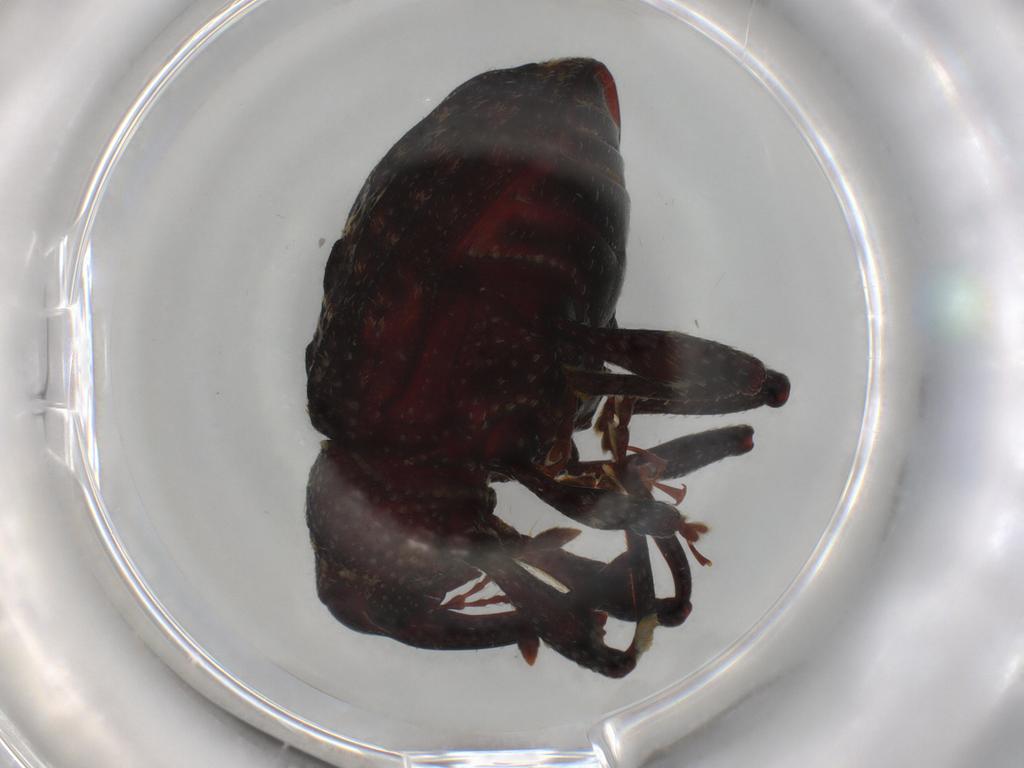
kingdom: Animalia
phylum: Arthropoda
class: Insecta
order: Coleoptera
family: Curculionidae
